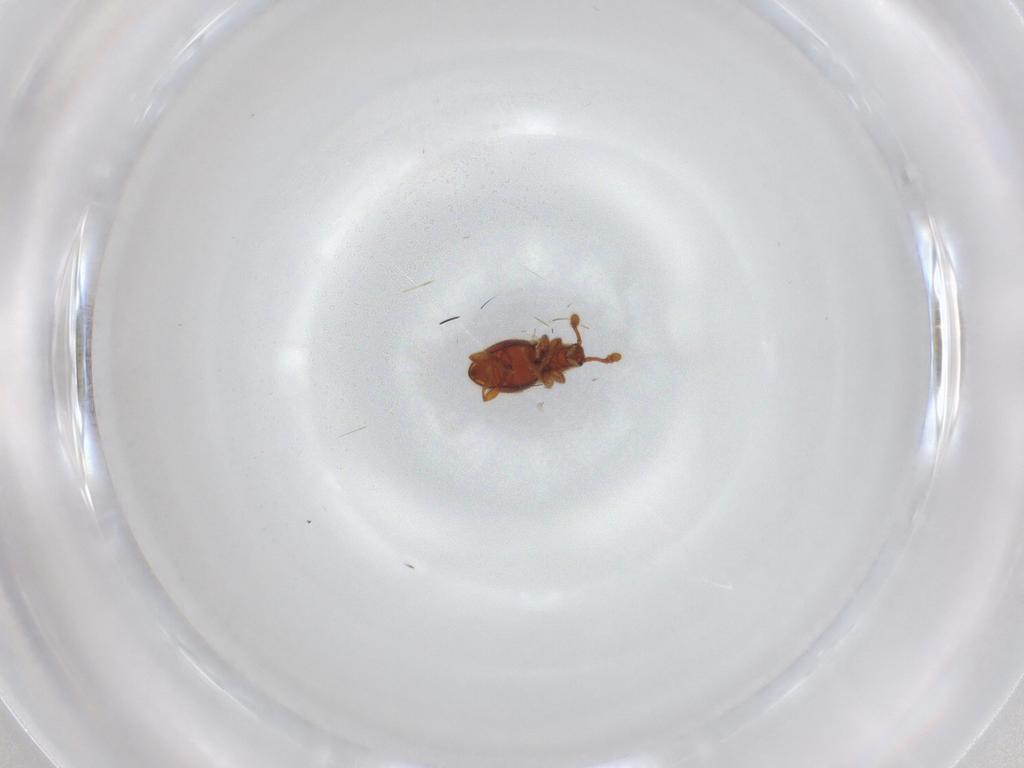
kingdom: Animalia
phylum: Arthropoda
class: Insecta
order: Coleoptera
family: Staphylinidae
